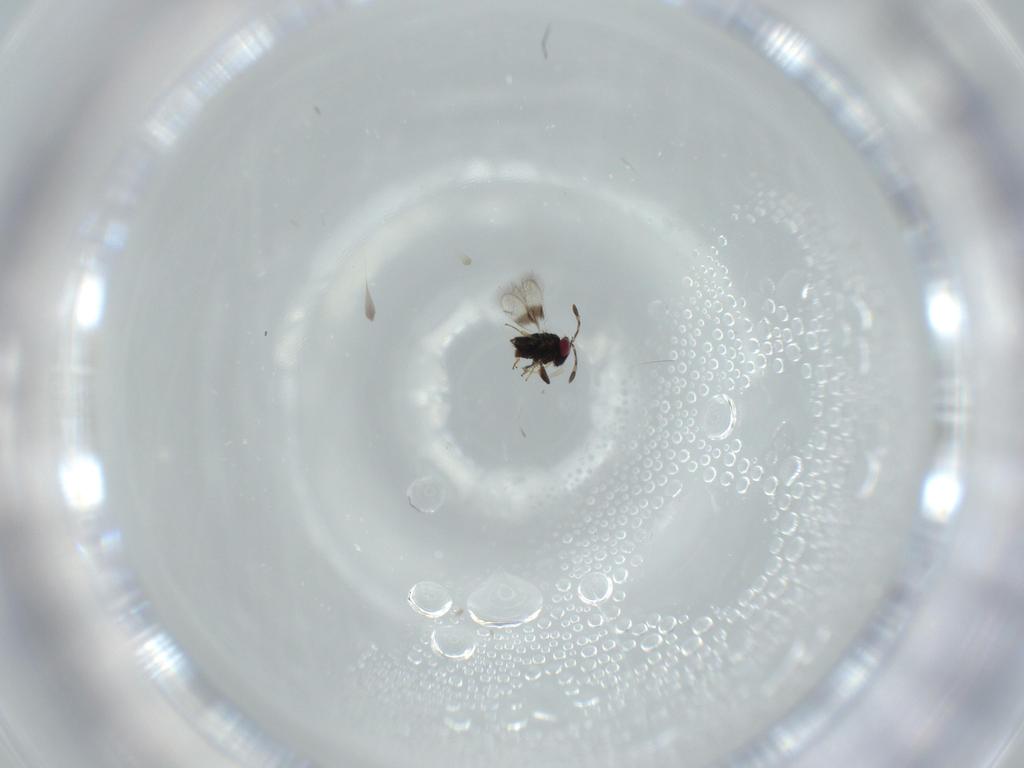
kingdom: Animalia
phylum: Arthropoda
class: Insecta
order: Hymenoptera
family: Azotidae
